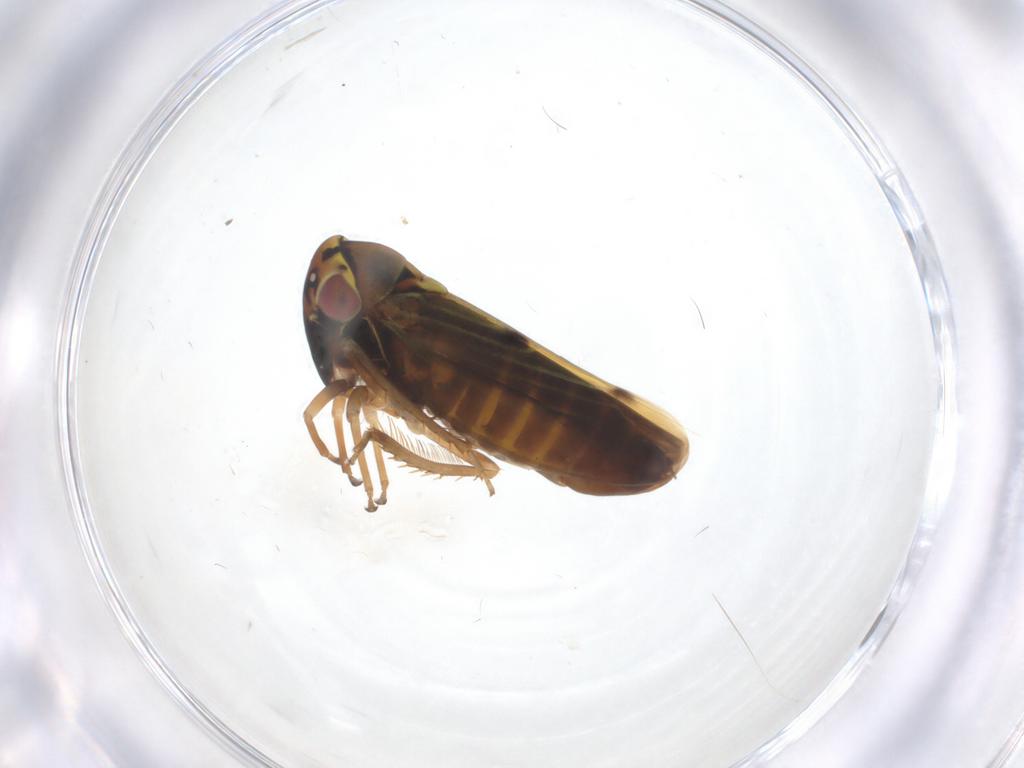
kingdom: Animalia
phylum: Arthropoda
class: Insecta
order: Hemiptera
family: Cicadellidae
